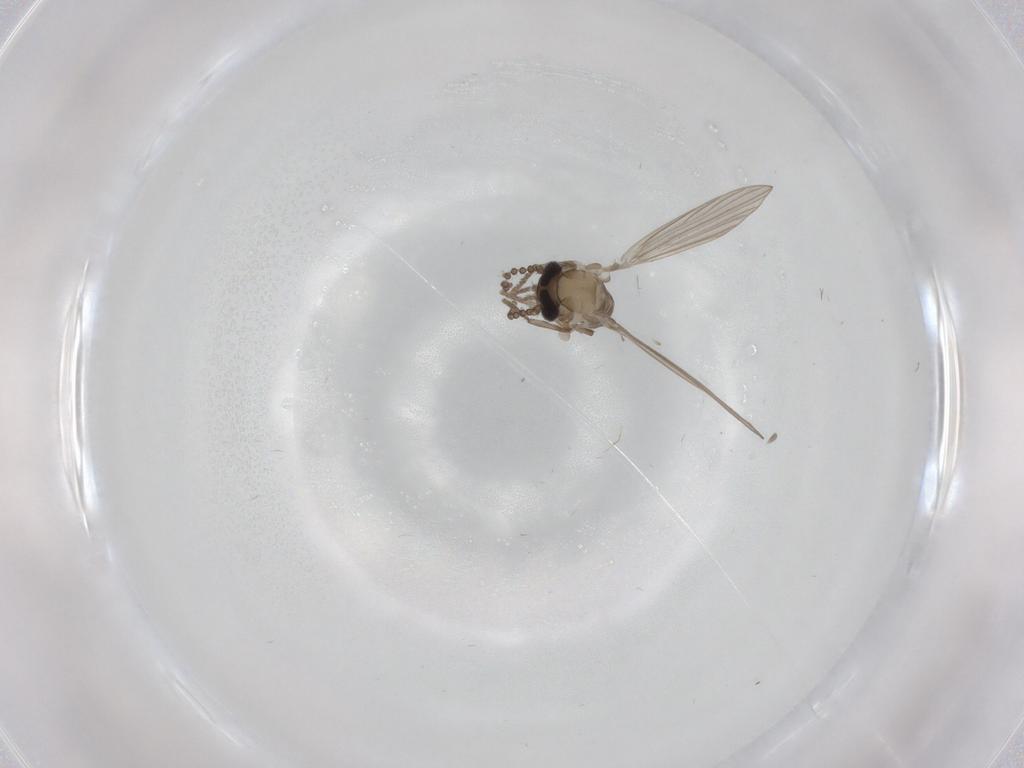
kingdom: Animalia
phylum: Arthropoda
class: Insecta
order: Diptera
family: Psychodidae
